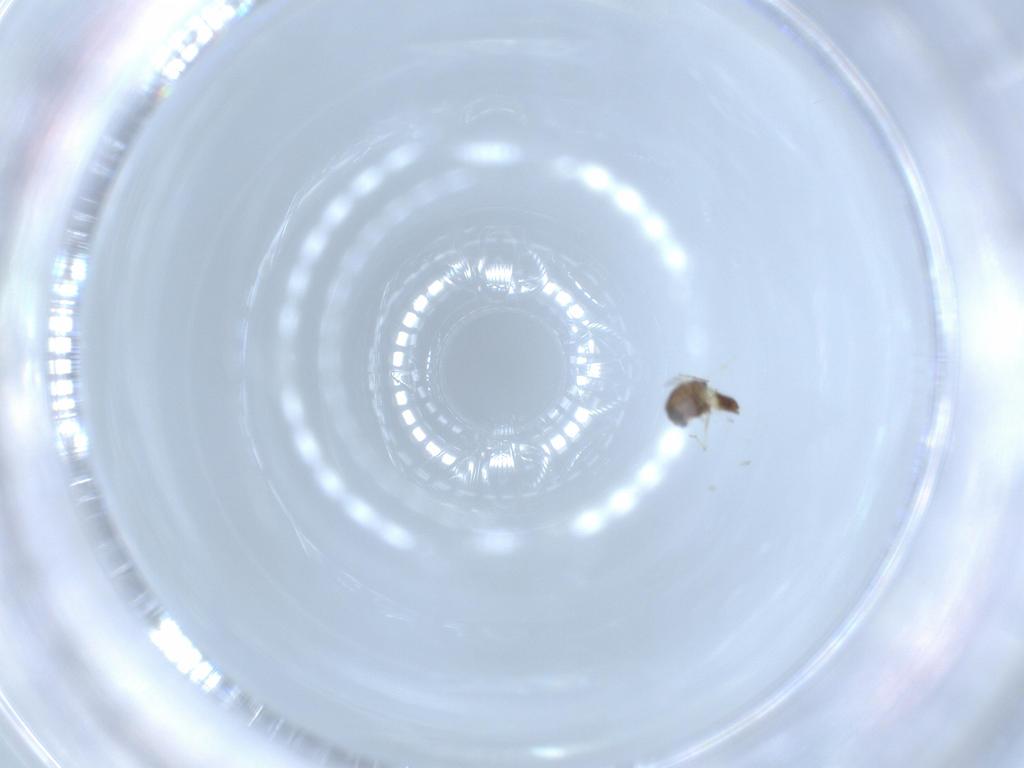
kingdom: Animalia
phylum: Arthropoda
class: Insecta
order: Diptera
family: Chironomidae
